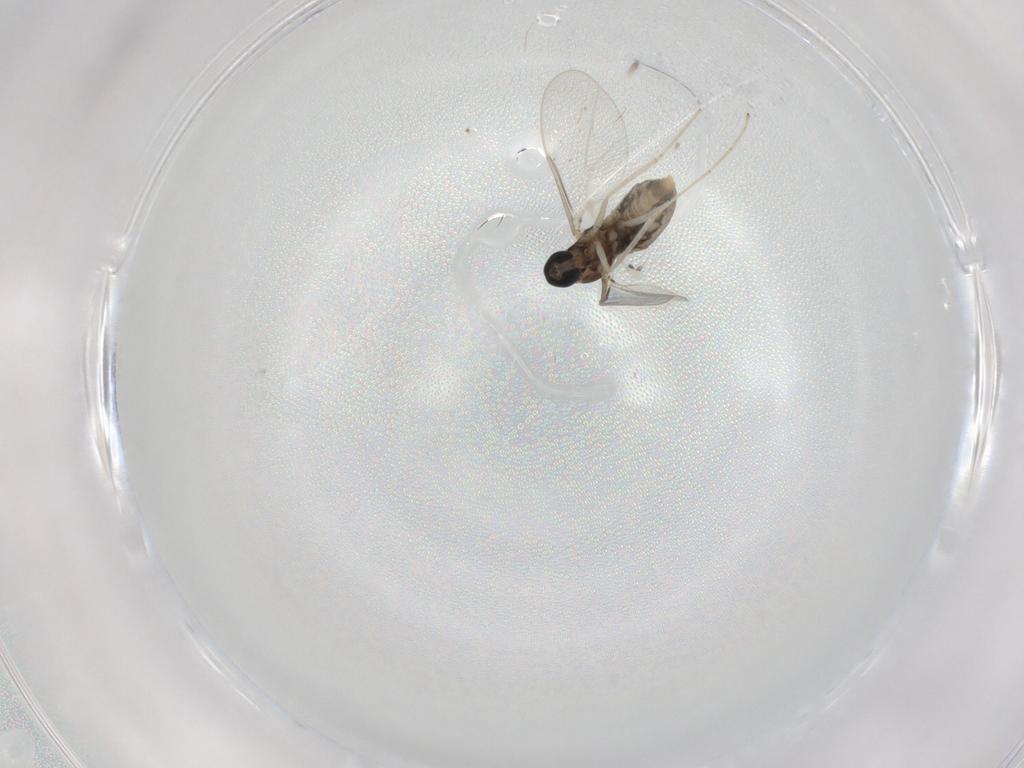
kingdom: Animalia
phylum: Arthropoda
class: Insecta
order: Diptera
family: Cecidomyiidae
